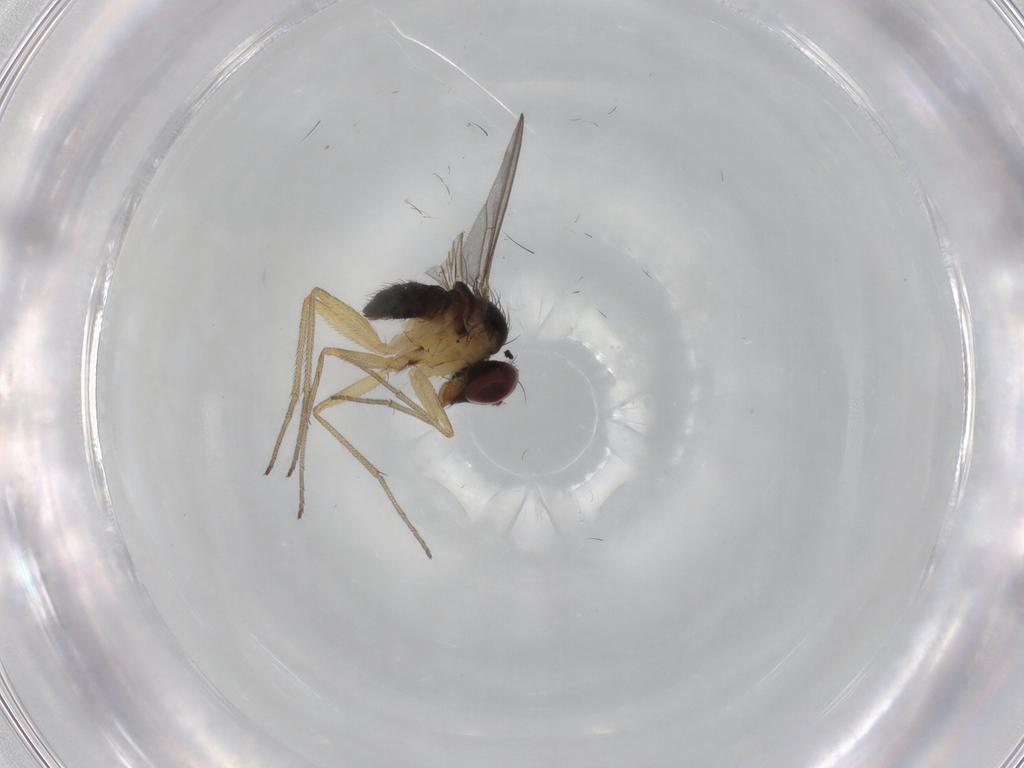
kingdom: Animalia
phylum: Arthropoda
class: Insecta
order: Diptera
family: Dolichopodidae
